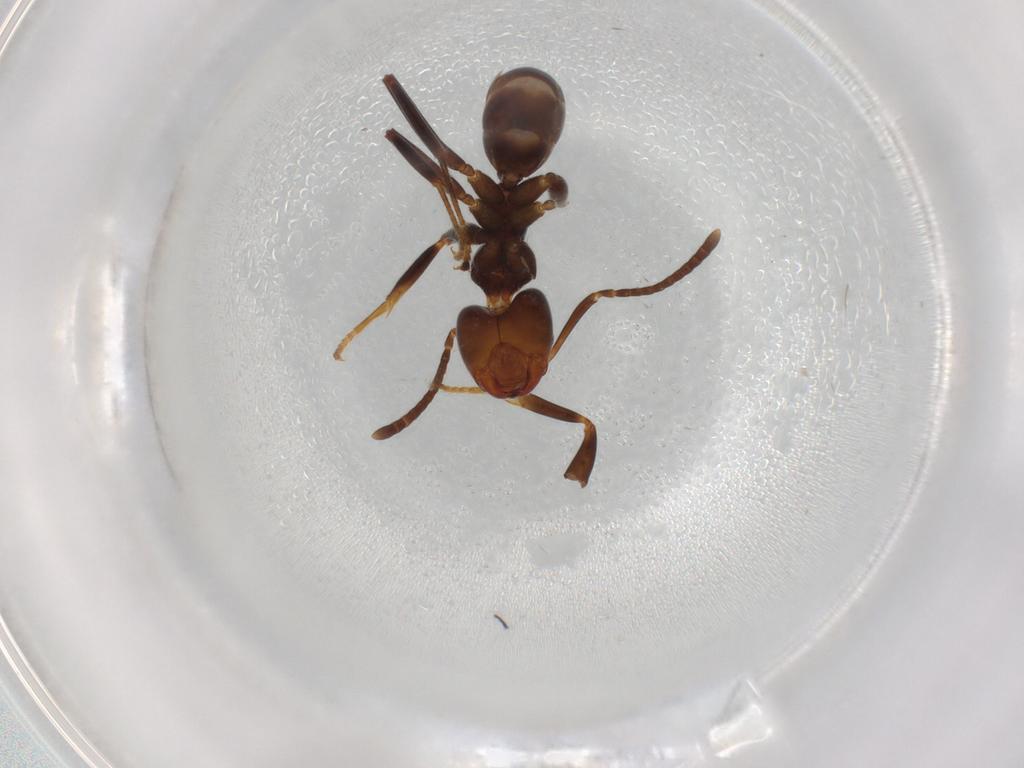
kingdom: Animalia
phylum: Arthropoda
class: Insecta
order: Hymenoptera
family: Formicidae
